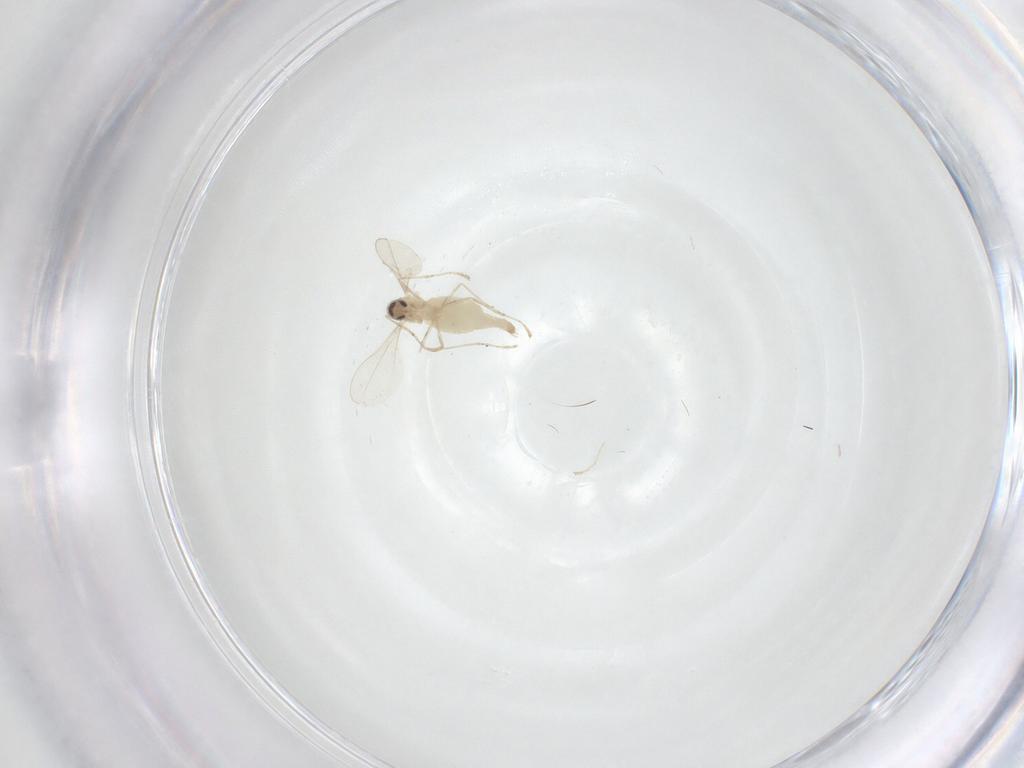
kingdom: Animalia
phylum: Arthropoda
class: Insecta
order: Diptera
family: Cecidomyiidae
